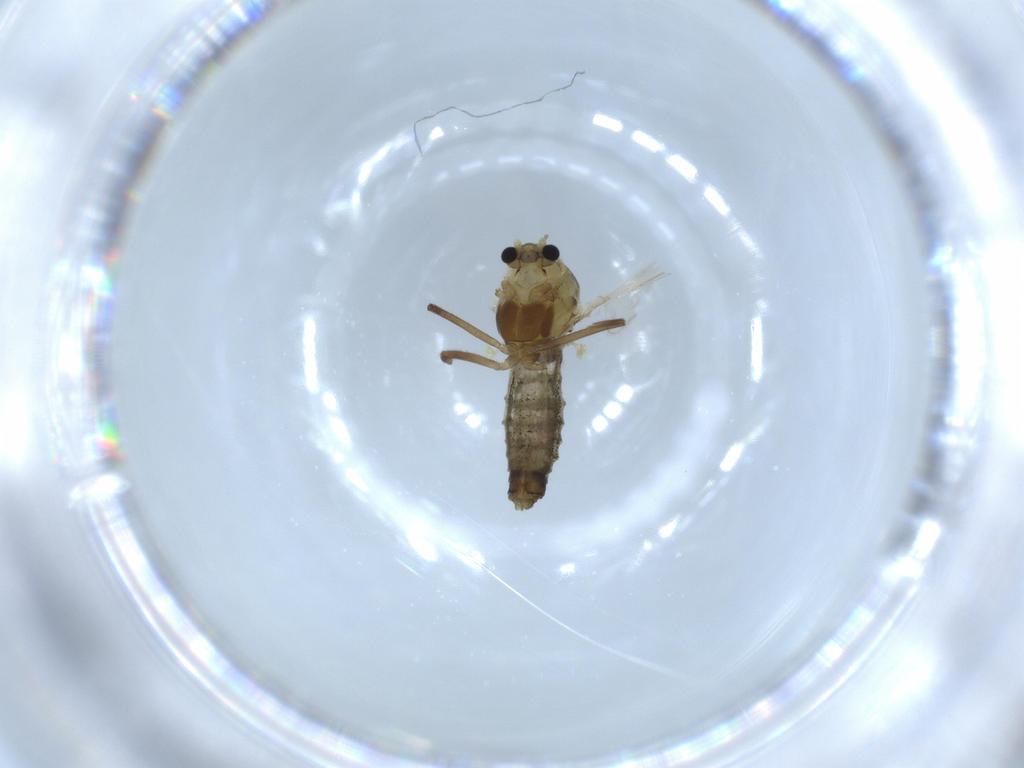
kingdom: Animalia
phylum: Arthropoda
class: Insecta
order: Diptera
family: Chironomidae
